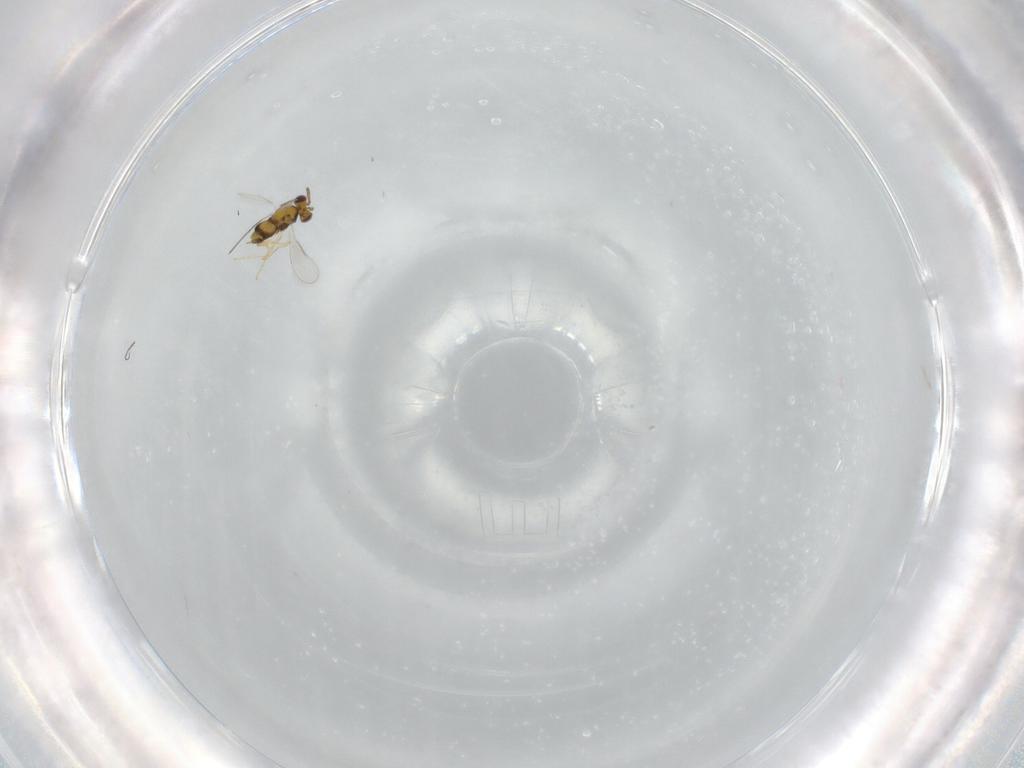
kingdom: Animalia
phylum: Arthropoda
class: Insecta
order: Hymenoptera
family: Aphelinidae
